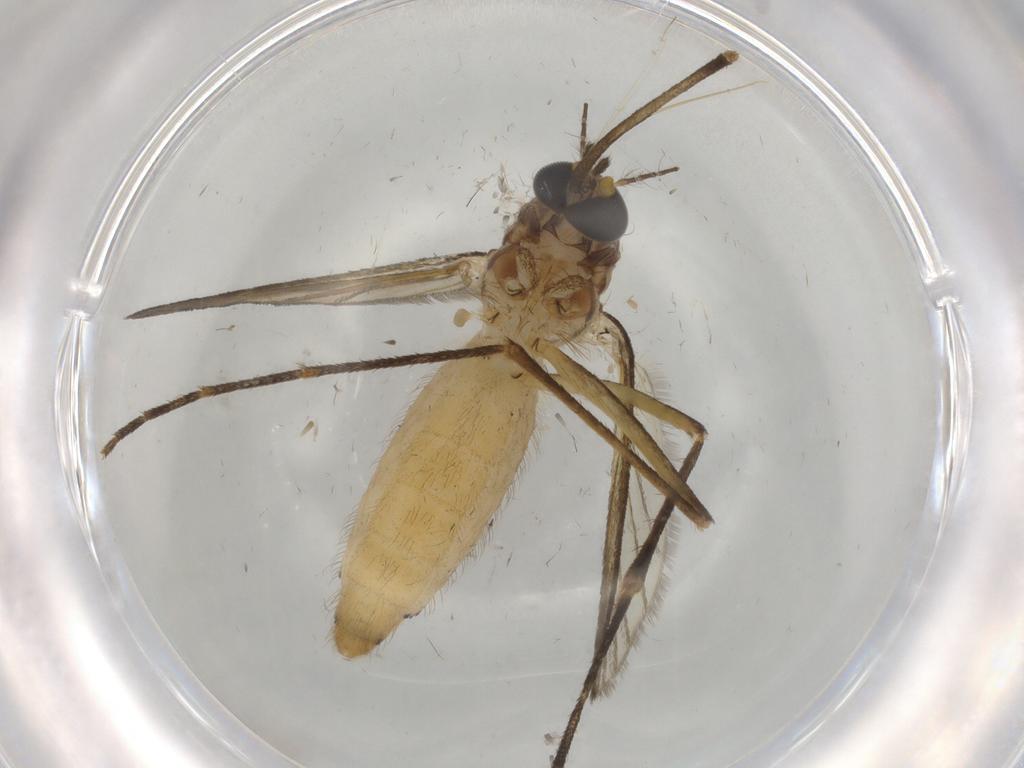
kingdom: Animalia
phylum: Arthropoda
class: Insecta
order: Diptera
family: Culicidae
